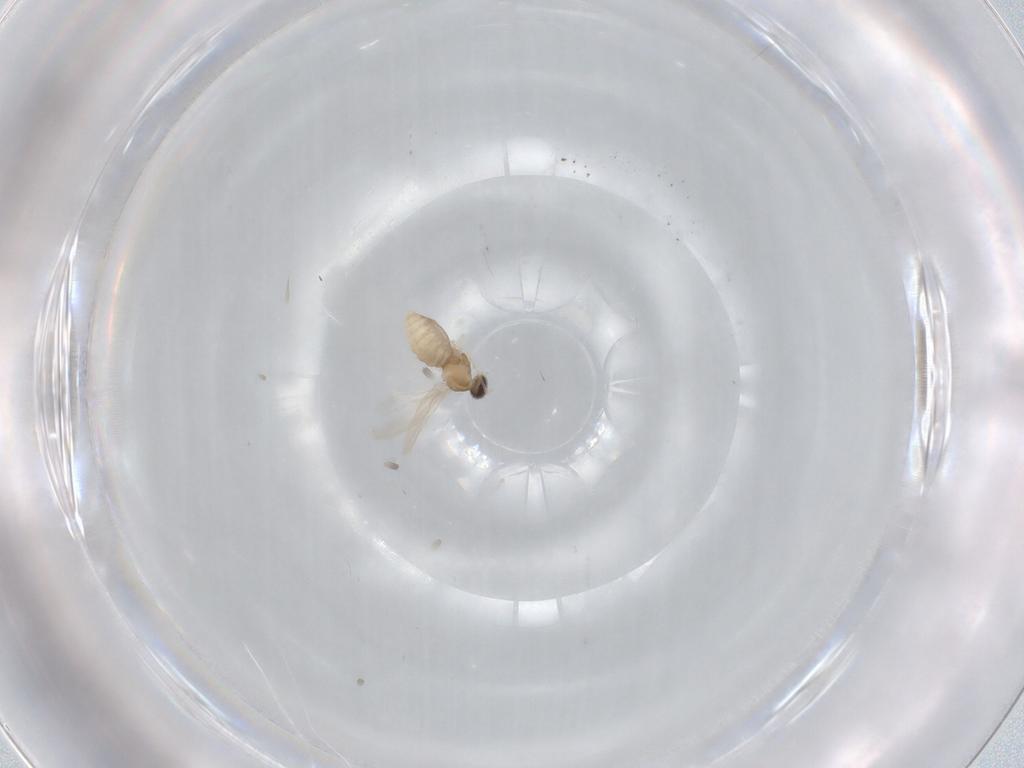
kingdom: Animalia
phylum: Arthropoda
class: Insecta
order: Diptera
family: Cecidomyiidae
